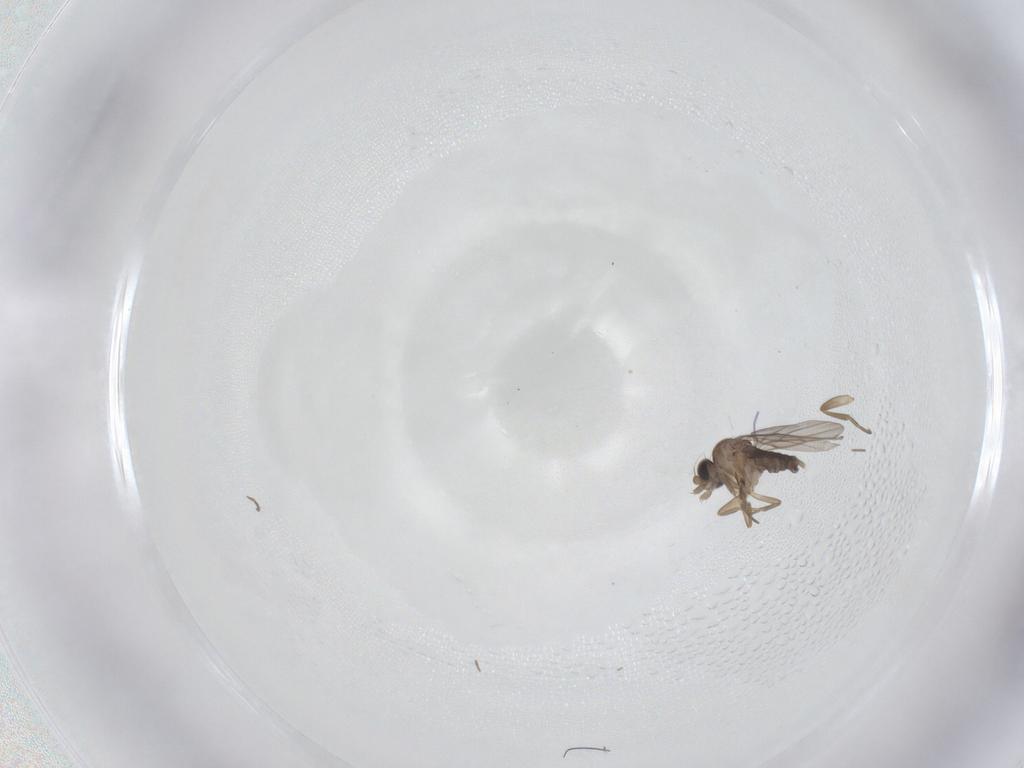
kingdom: Animalia
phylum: Arthropoda
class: Insecta
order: Diptera
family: Phoridae
